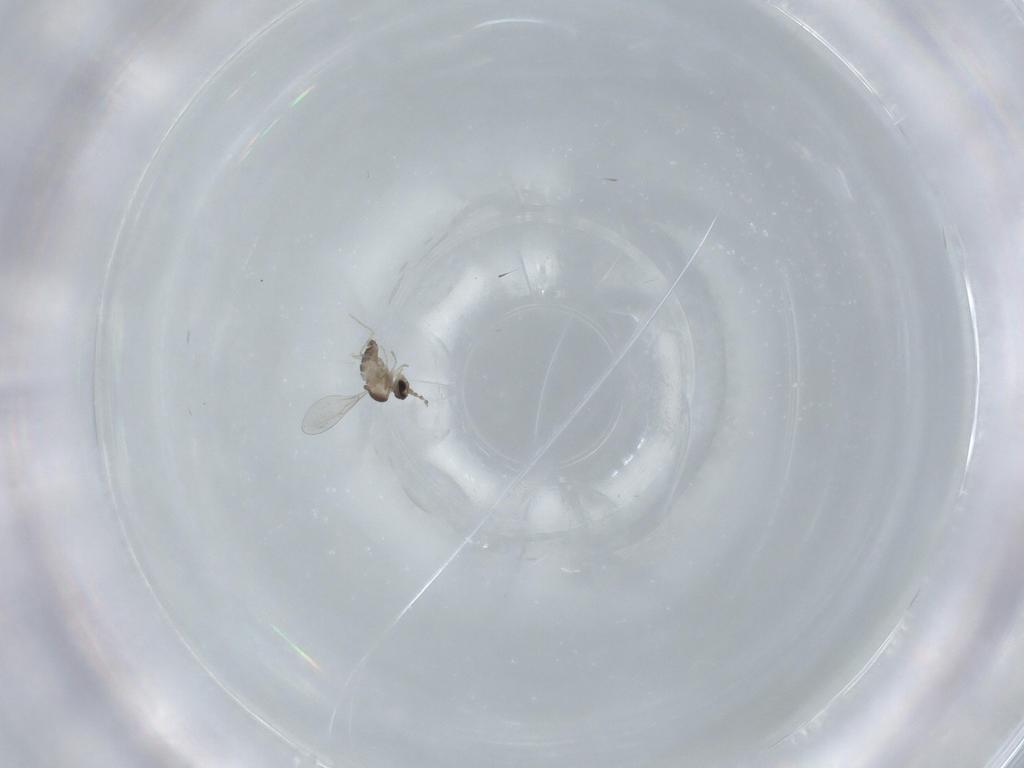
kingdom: Animalia
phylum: Arthropoda
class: Insecta
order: Diptera
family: Cecidomyiidae
